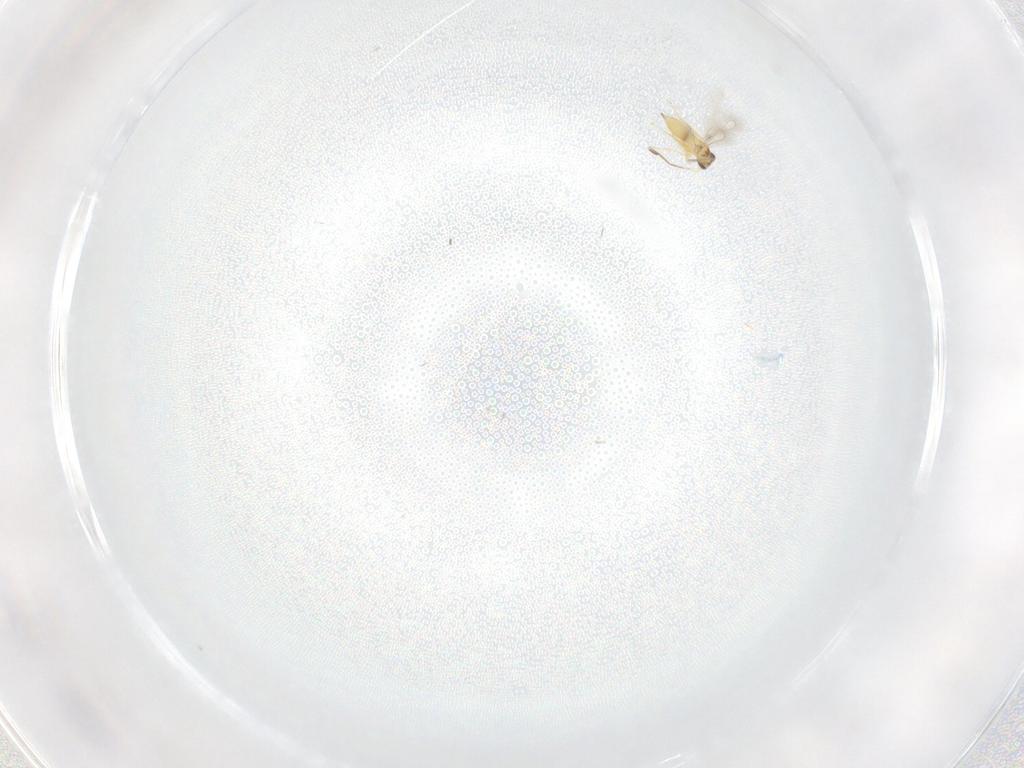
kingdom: Animalia
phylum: Arthropoda
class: Insecta
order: Hymenoptera
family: Mymaridae
